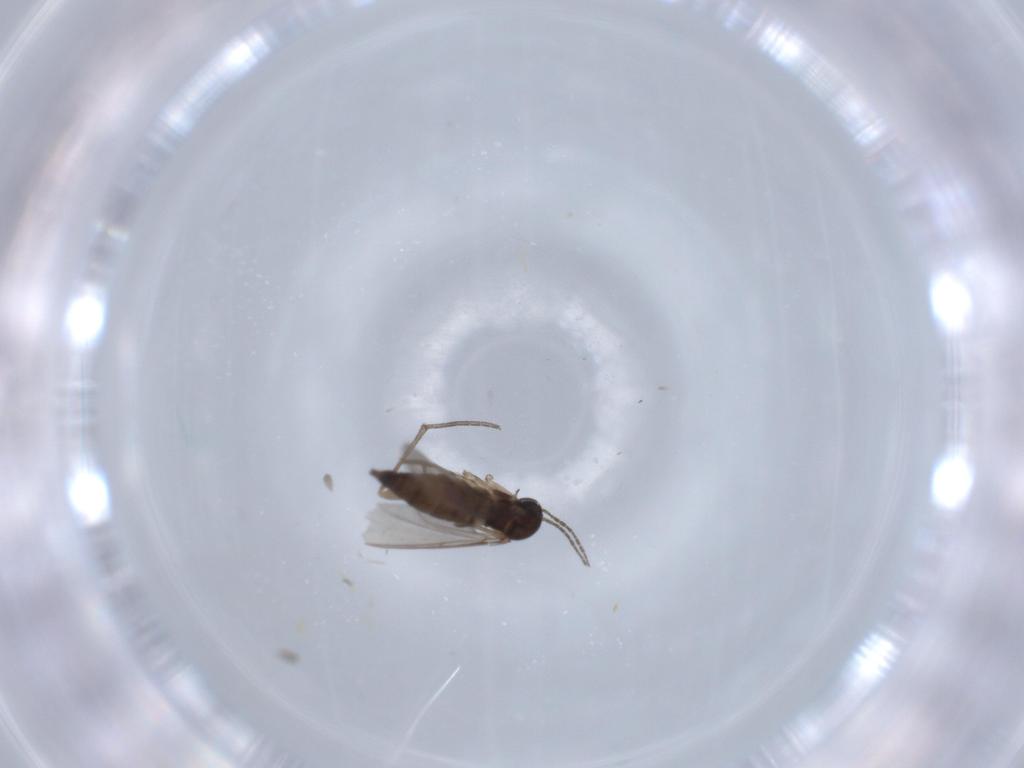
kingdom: Animalia
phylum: Arthropoda
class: Insecta
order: Diptera
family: Sciaridae
